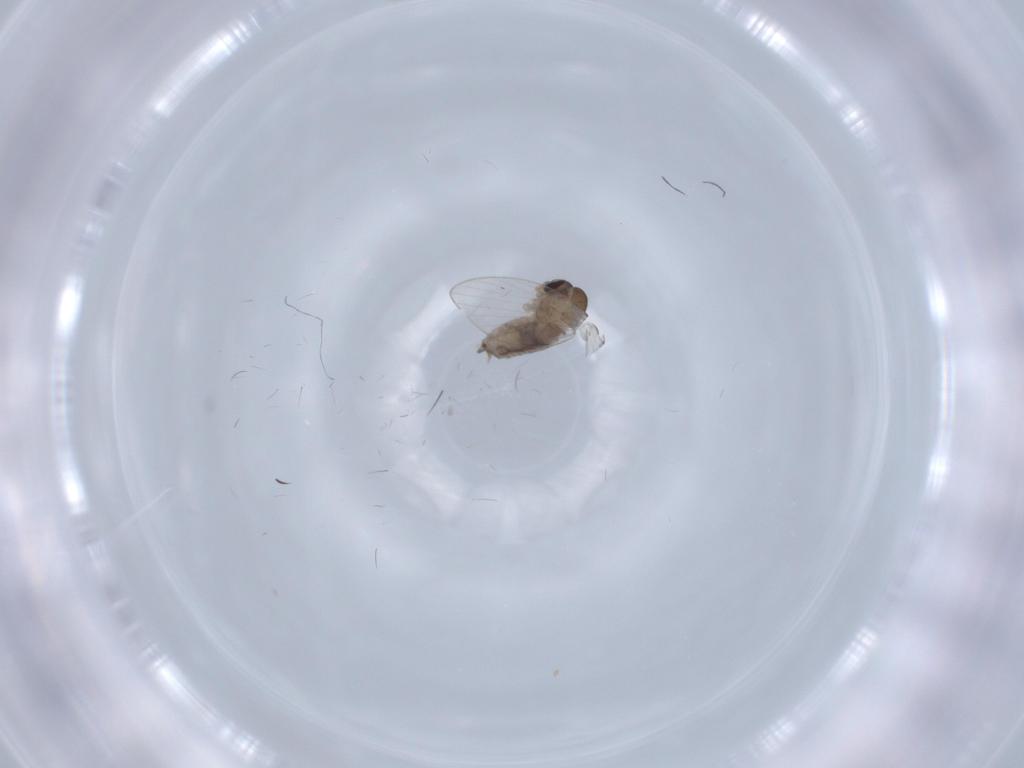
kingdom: Animalia
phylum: Arthropoda
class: Insecta
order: Diptera
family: Psychodidae
